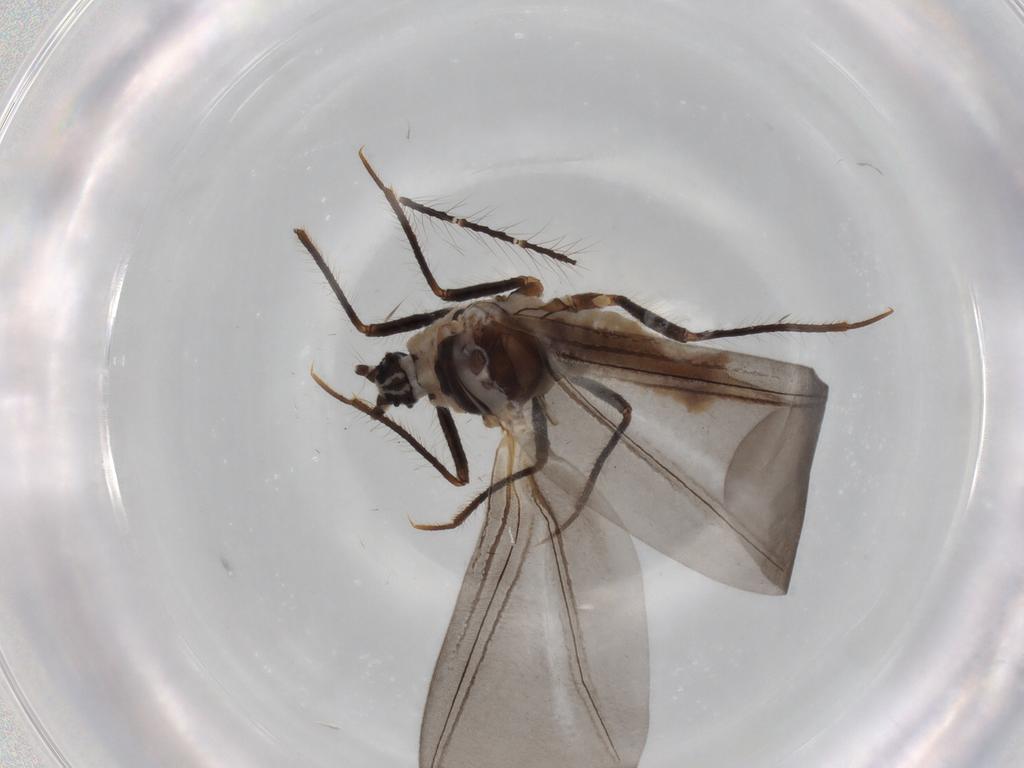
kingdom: Animalia
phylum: Arthropoda
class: Insecta
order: Hemiptera
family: Putoidae
